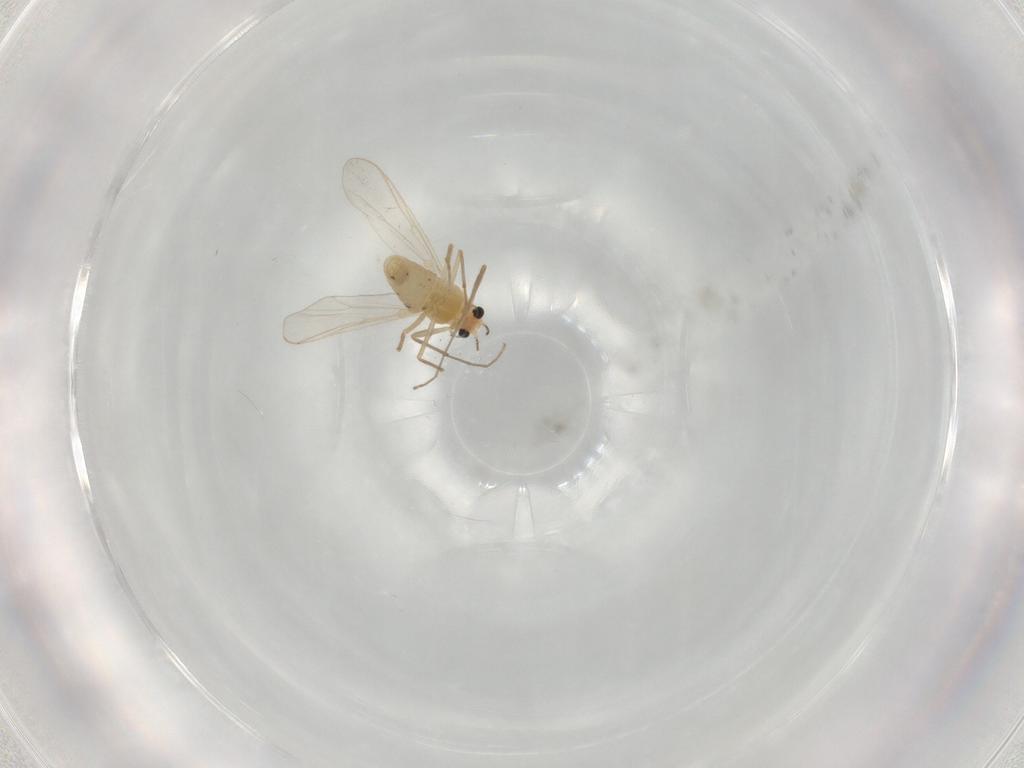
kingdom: Animalia
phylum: Arthropoda
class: Insecta
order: Diptera
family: Chironomidae
